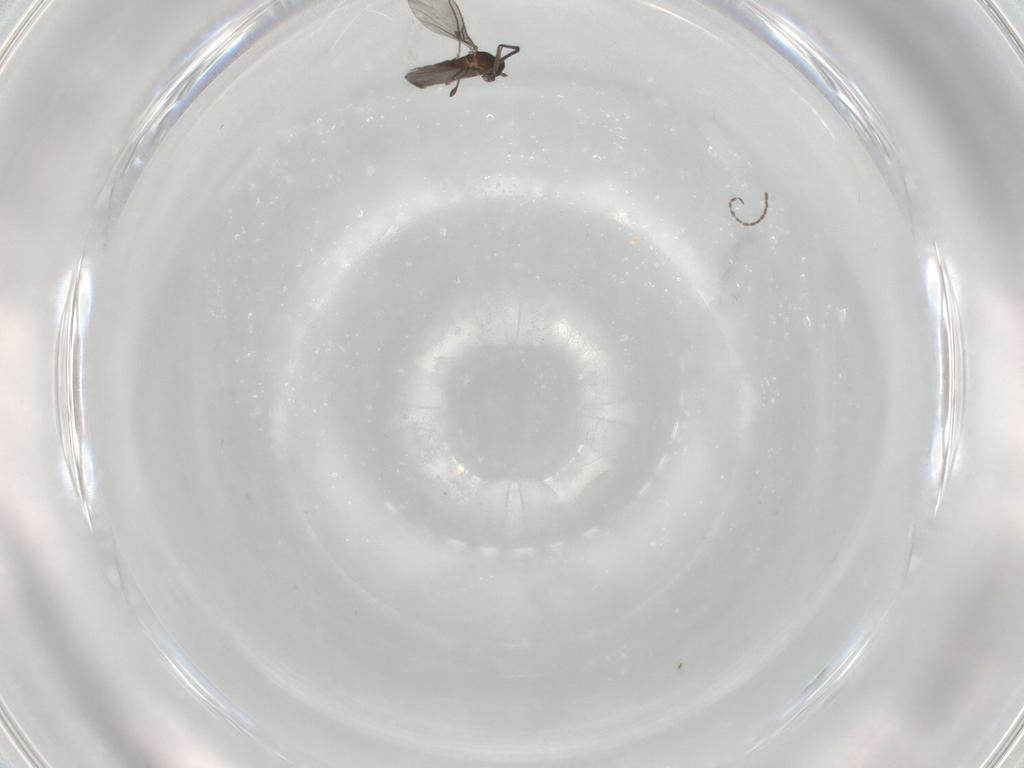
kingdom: Animalia
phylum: Arthropoda
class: Insecta
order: Diptera
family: Sciaridae
